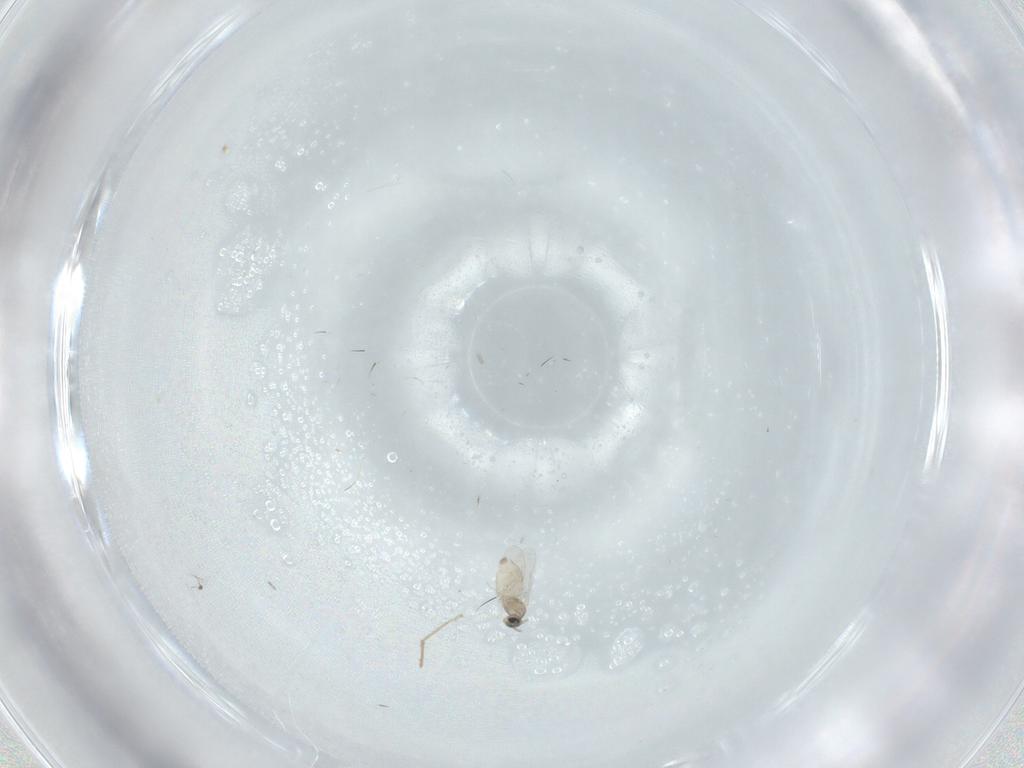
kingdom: Animalia
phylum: Arthropoda
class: Insecta
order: Diptera
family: Cecidomyiidae
